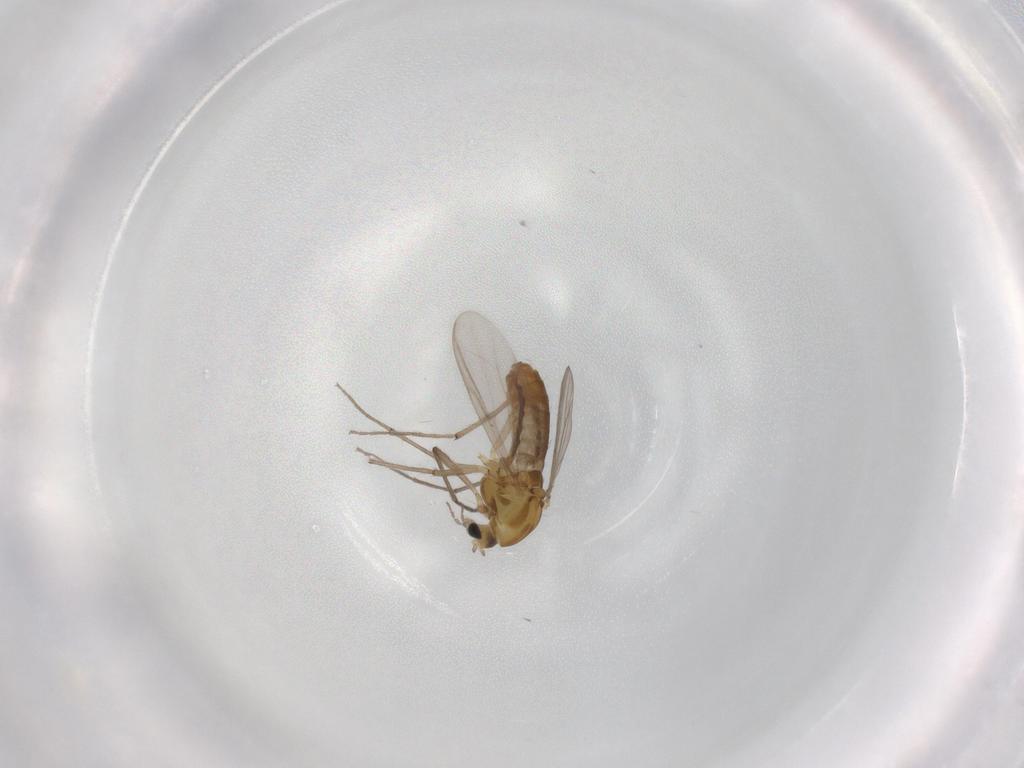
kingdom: Animalia
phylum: Arthropoda
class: Insecta
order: Diptera
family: Chironomidae
